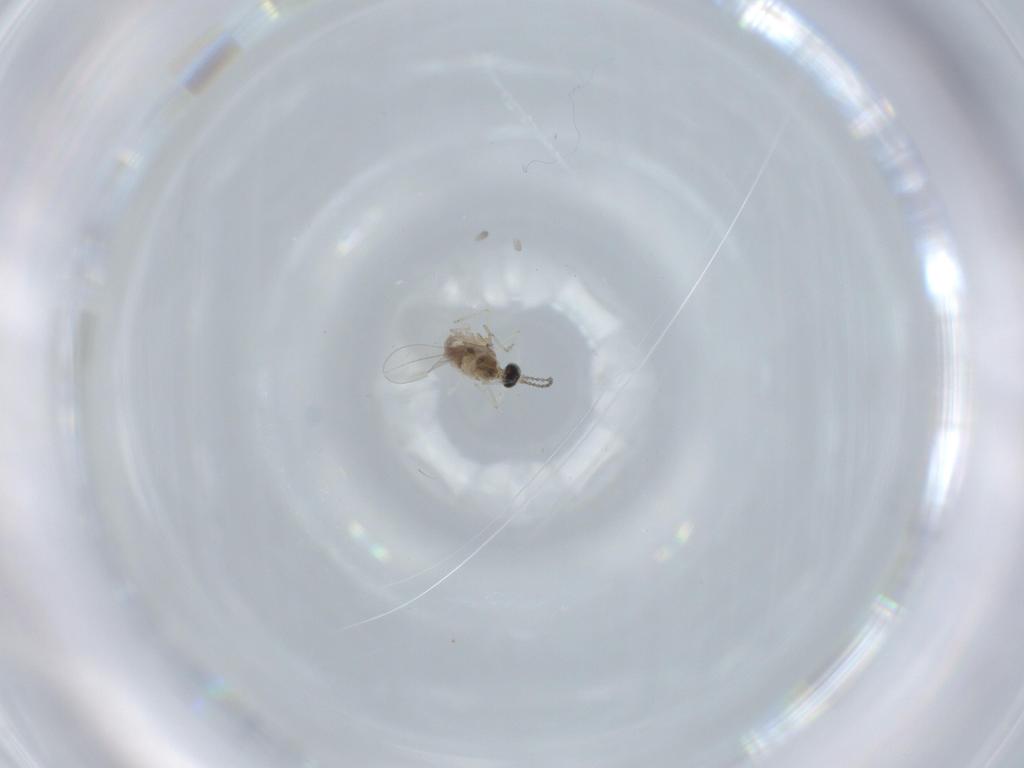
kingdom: Animalia
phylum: Arthropoda
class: Insecta
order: Diptera
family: Cecidomyiidae
